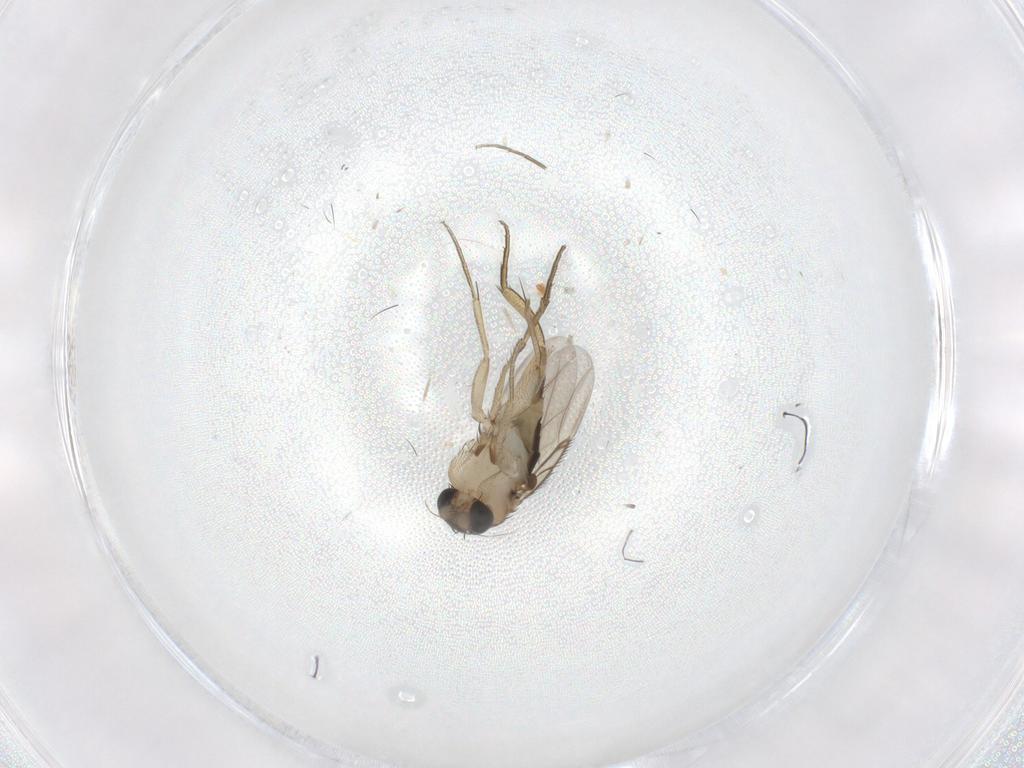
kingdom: Animalia
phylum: Arthropoda
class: Insecta
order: Diptera
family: Phoridae
